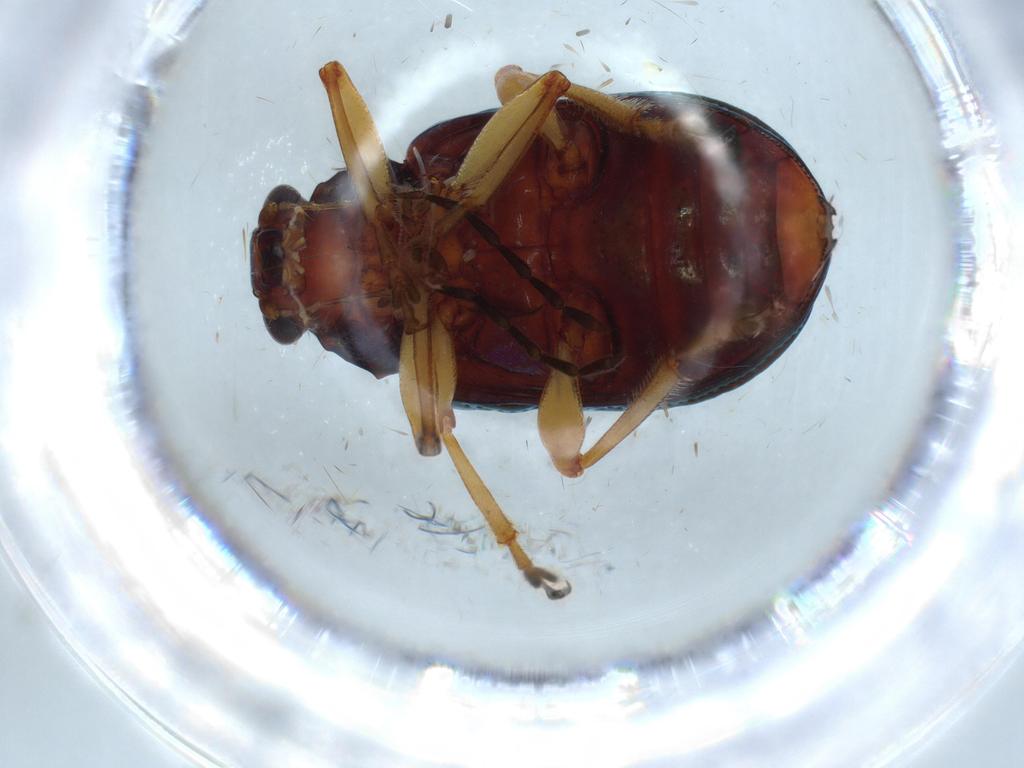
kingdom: Animalia
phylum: Arthropoda
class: Insecta
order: Coleoptera
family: Chrysomelidae
